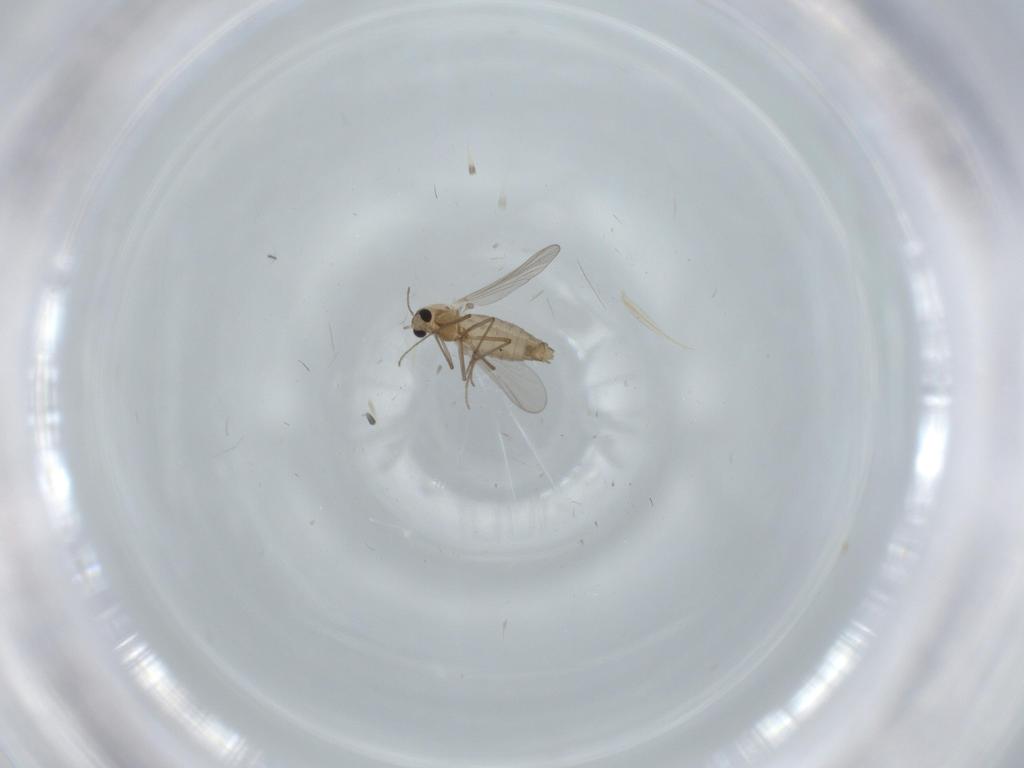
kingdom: Animalia
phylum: Arthropoda
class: Insecta
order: Diptera
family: Chironomidae
